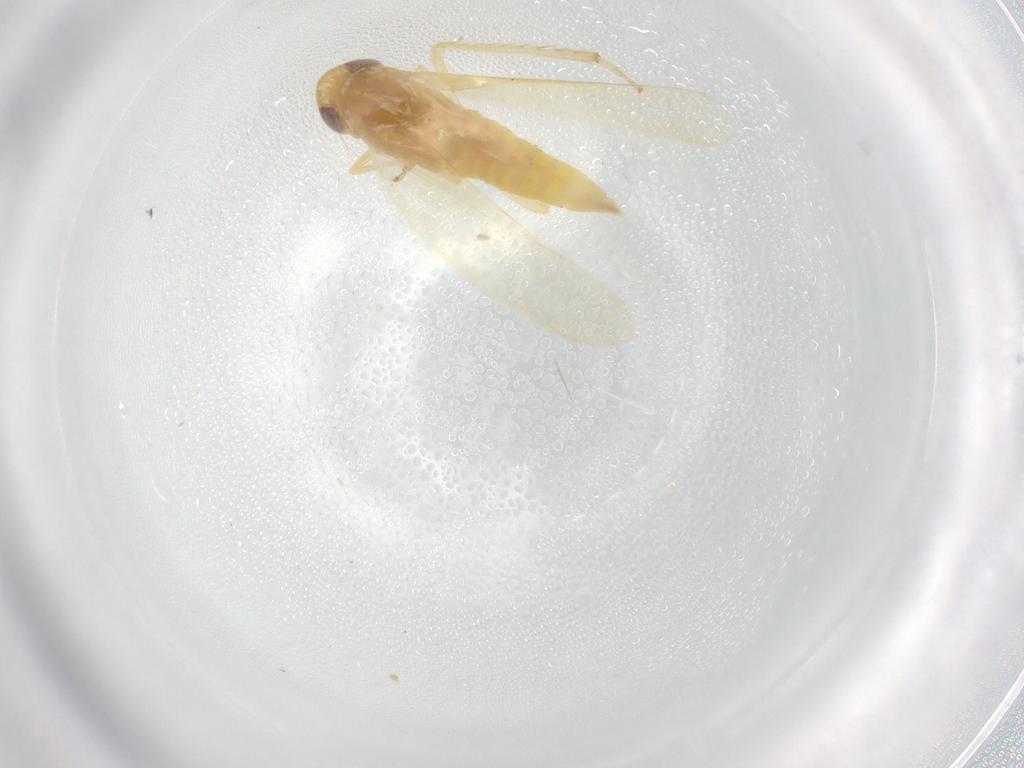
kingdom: Animalia
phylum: Arthropoda
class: Insecta
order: Hemiptera
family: Cicadellidae
